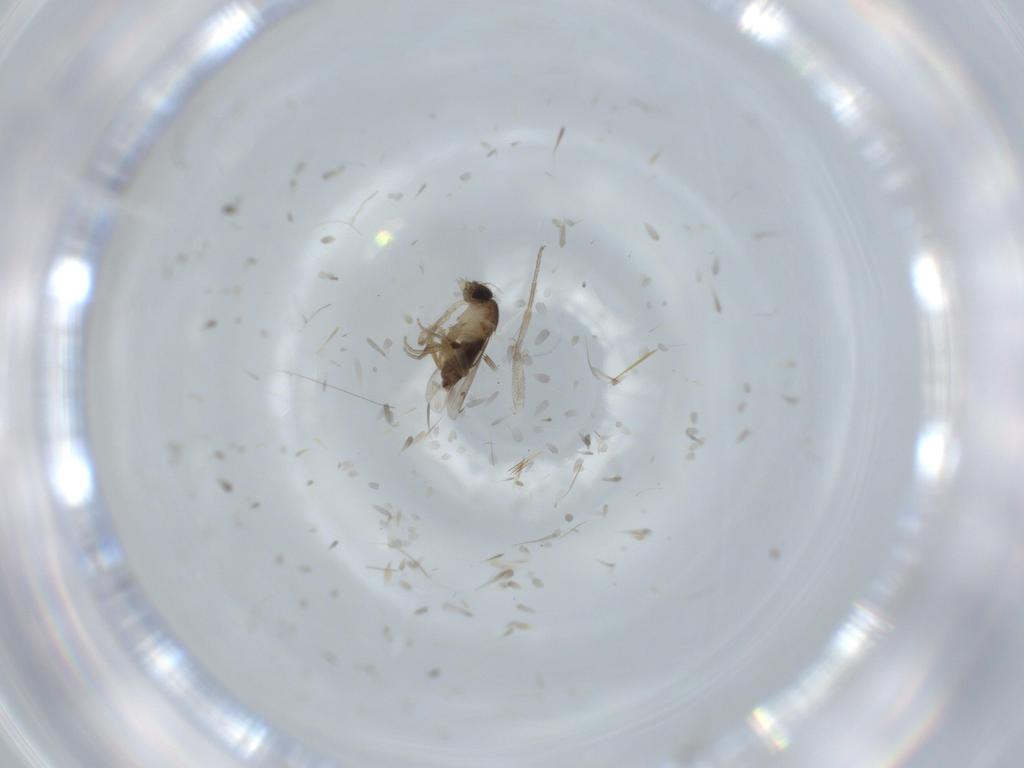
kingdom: Animalia
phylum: Arthropoda
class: Insecta
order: Diptera
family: Phoridae
